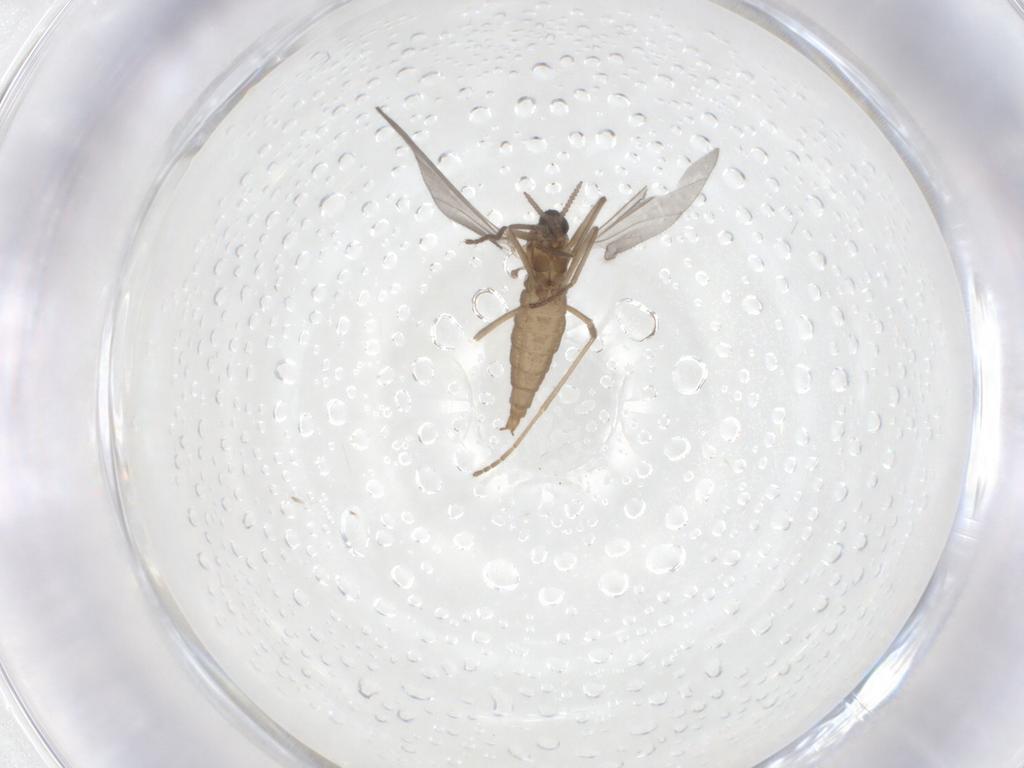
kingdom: Animalia
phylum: Arthropoda
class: Insecta
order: Diptera
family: Cecidomyiidae
